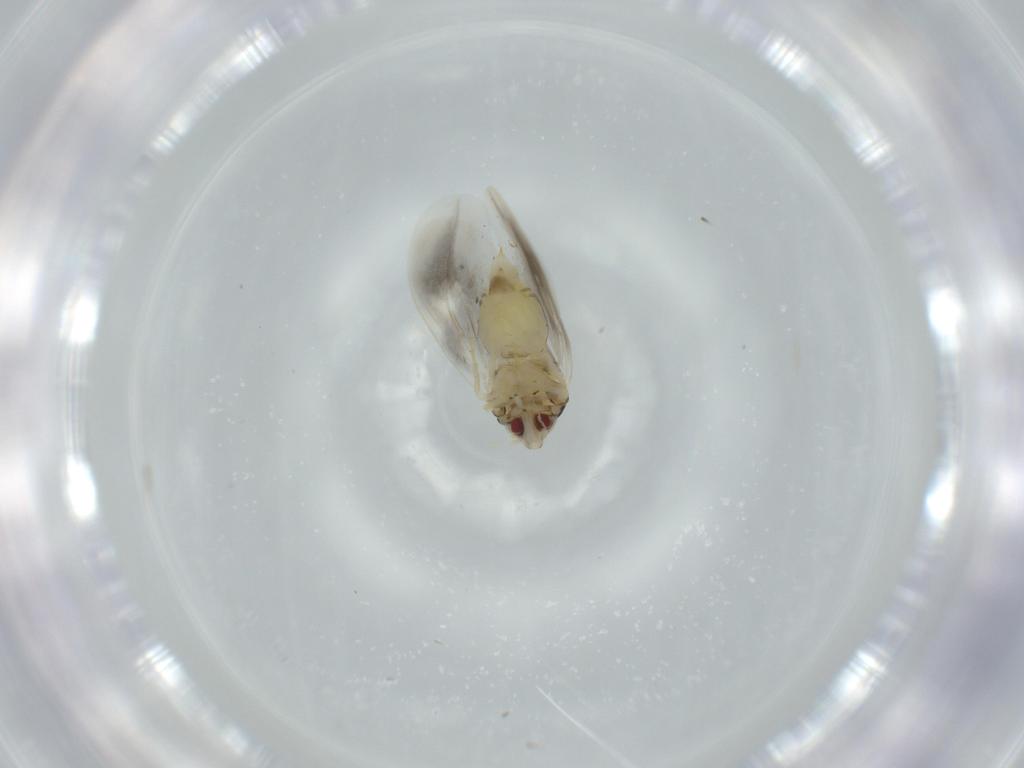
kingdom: Animalia
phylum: Arthropoda
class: Insecta
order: Hemiptera
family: Aleyrodidae
